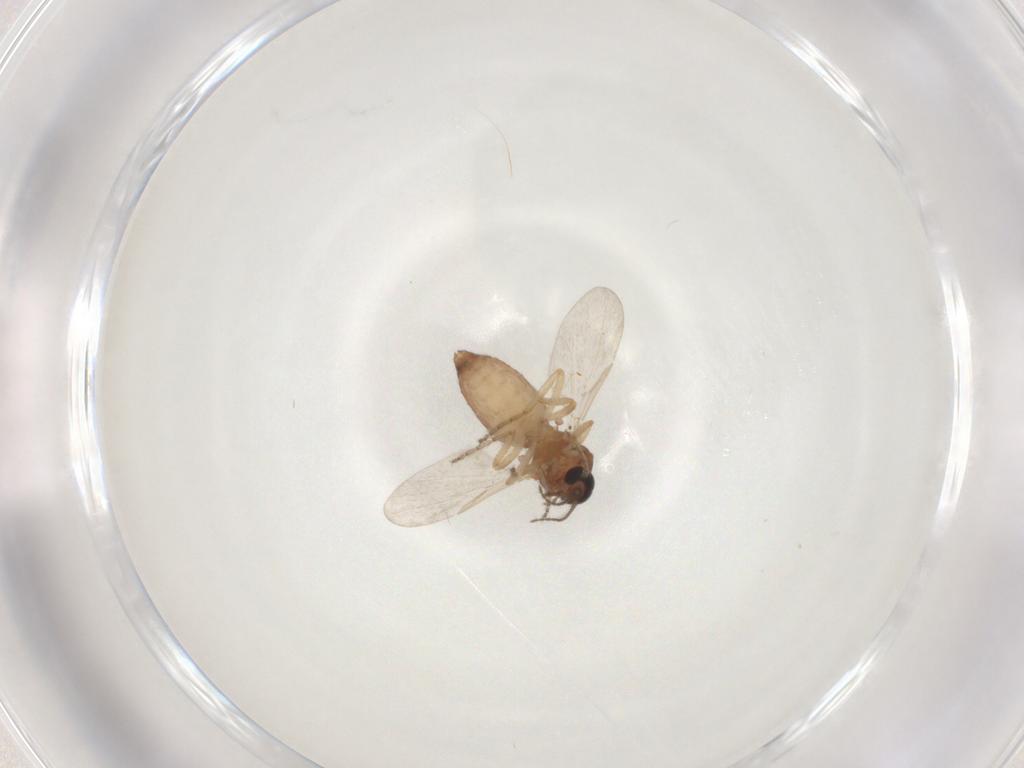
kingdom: Animalia
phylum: Arthropoda
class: Insecta
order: Diptera
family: Ceratopogonidae
